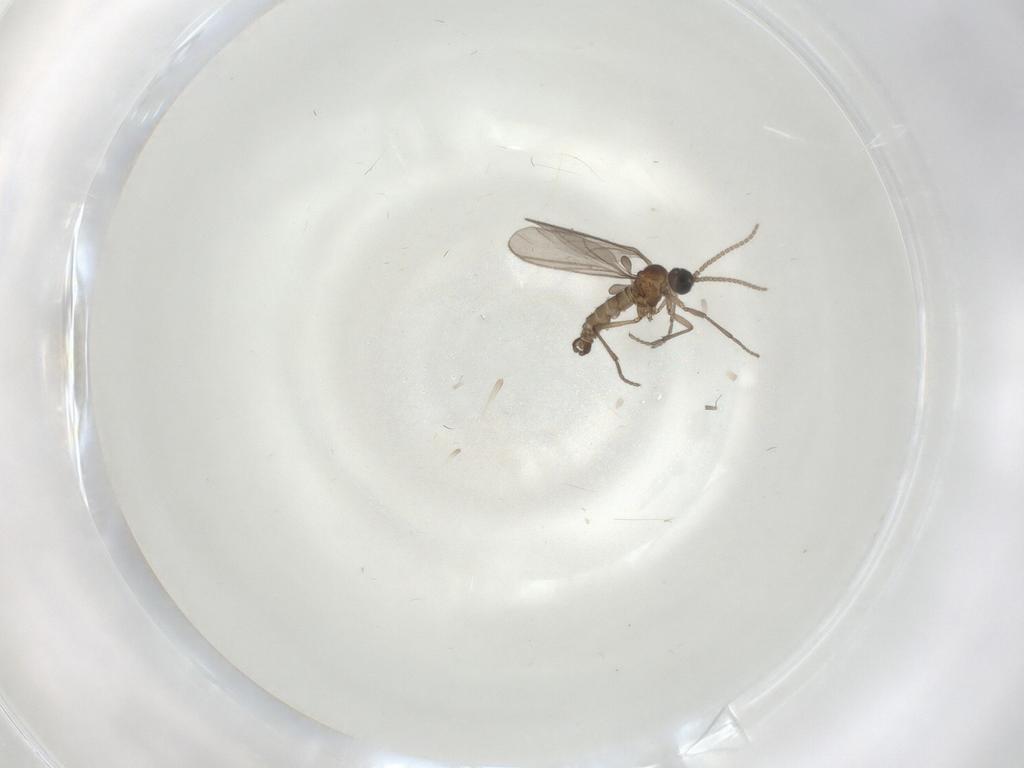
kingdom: Animalia
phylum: Arthropoda
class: Insecta
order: Diptera
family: Sciaridae
